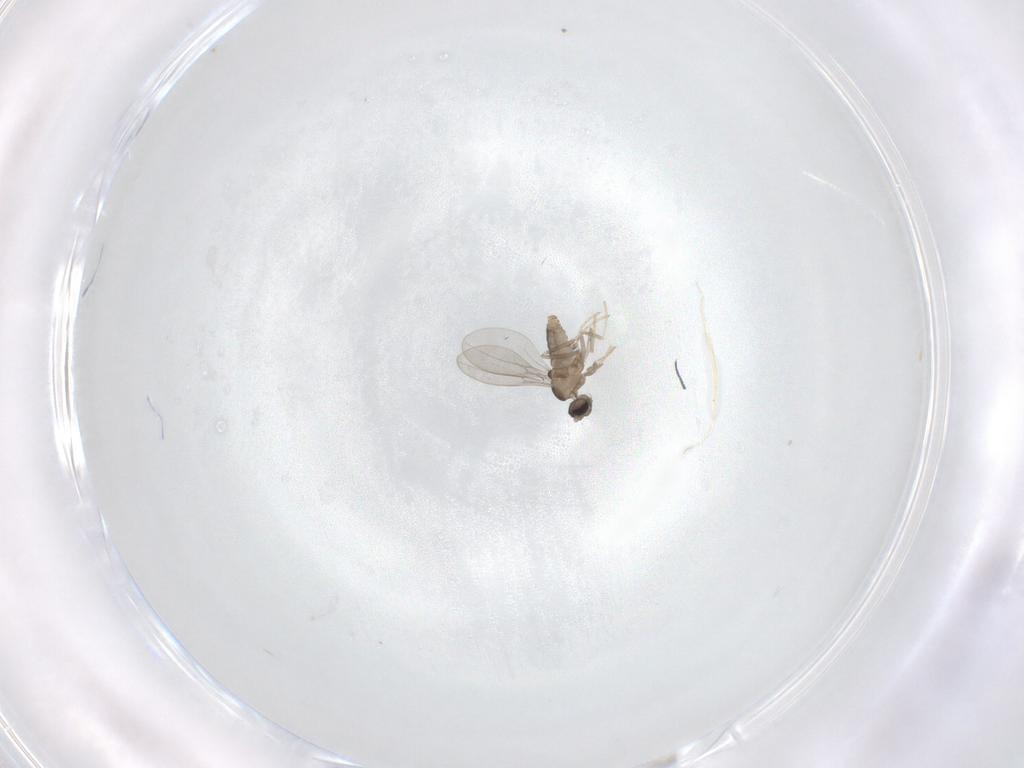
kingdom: Animalia
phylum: Arthropoda
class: Insecta
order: Diptera
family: Cecidomyiidae
